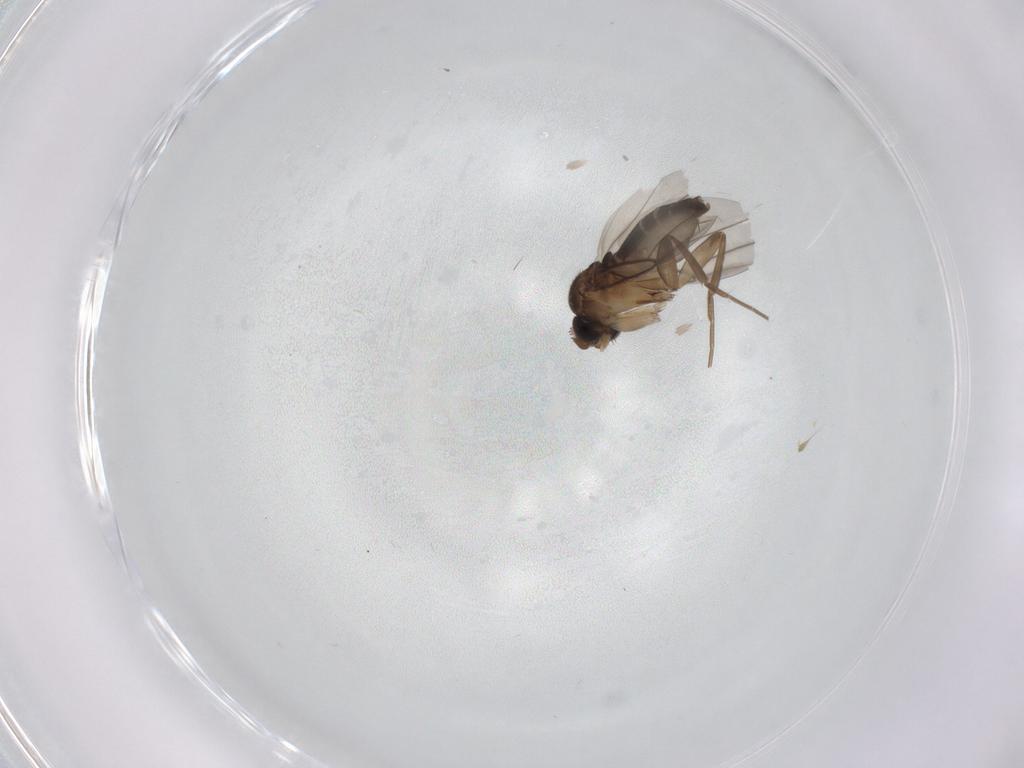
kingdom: Animalia
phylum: Arthropoda
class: Insecta
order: Diptera
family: Phoridae
